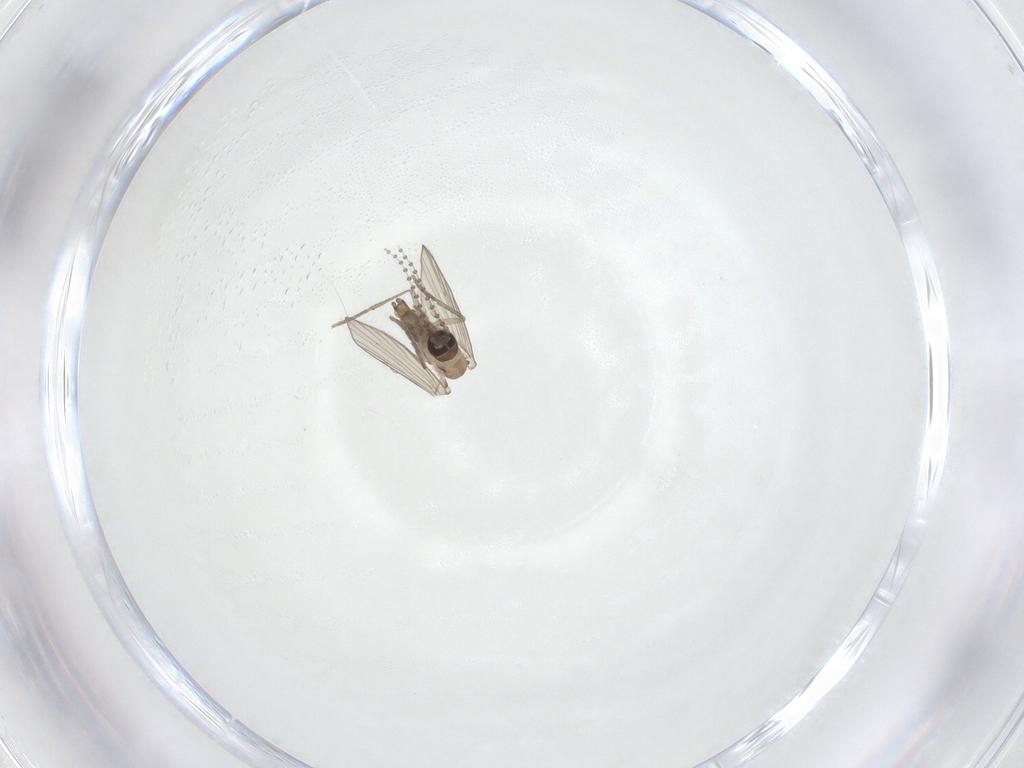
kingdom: Animalia
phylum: Arthropoda
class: Insecta
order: Diptera
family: Psychodidae
